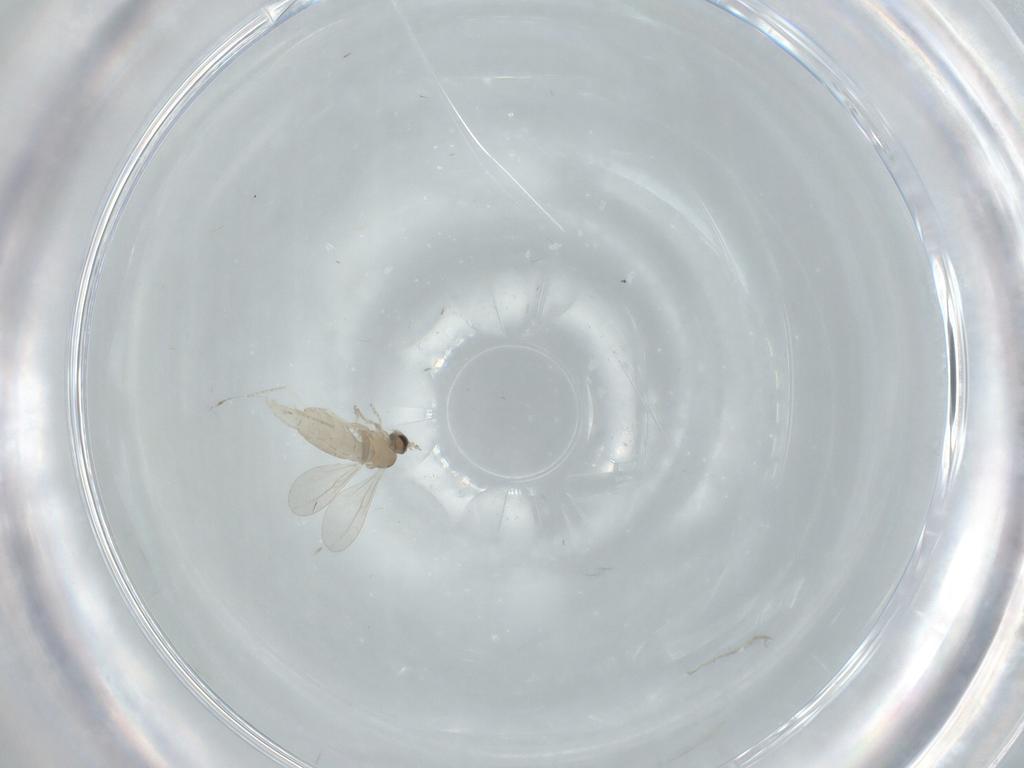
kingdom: Animalia
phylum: Arthropoda
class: Insecta
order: Diptera
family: Cecidomyiidae
